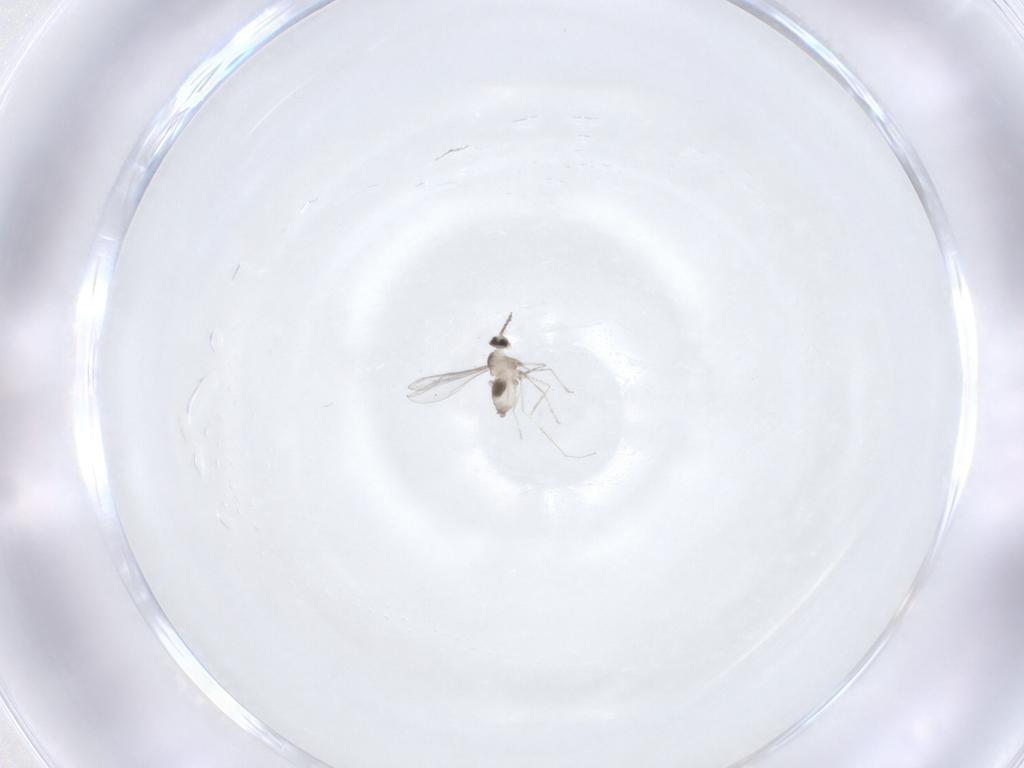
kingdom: Animalia
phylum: Arthropoda
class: Insecta
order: Diptera
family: Cecidomyiidae
